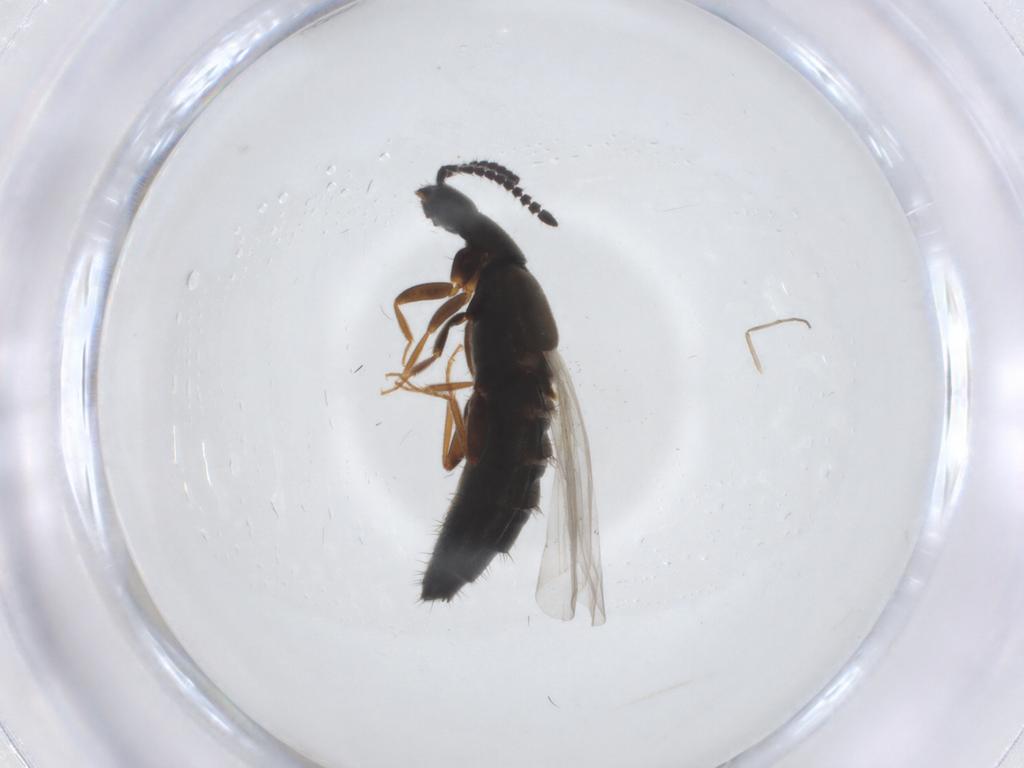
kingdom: Animalia
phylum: Arthropoda
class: Insecta
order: Coleoptera
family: Staphylinidae
